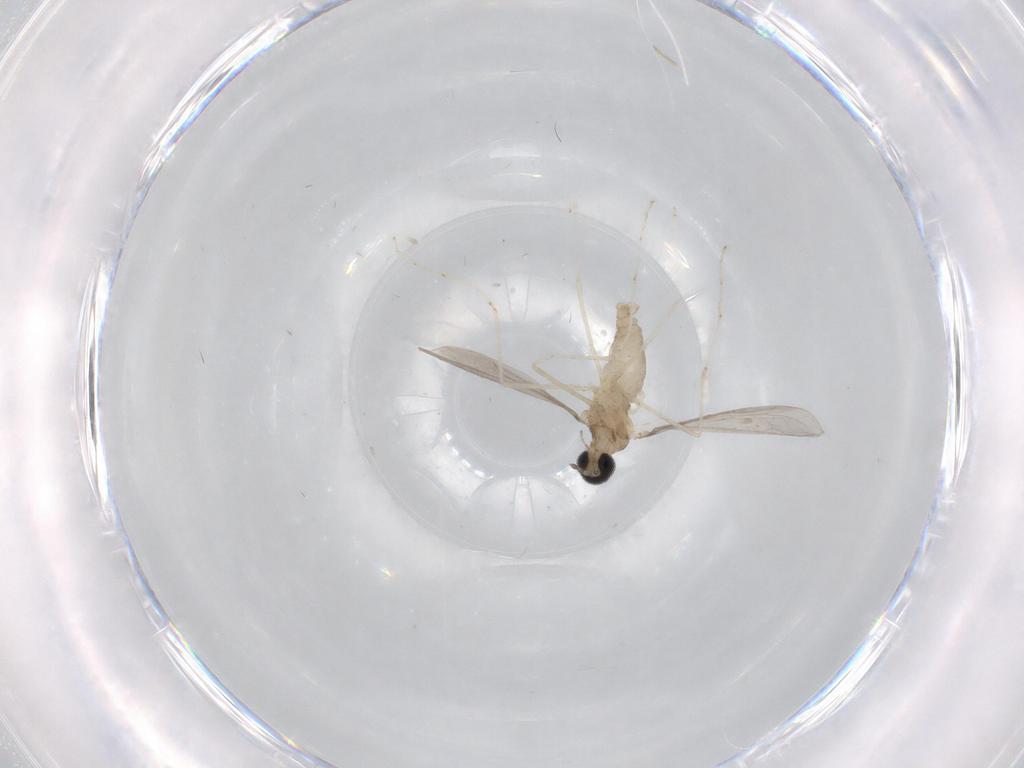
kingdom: Animalia
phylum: Arthropoda
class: Insecta
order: Diptera
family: Cecidomyiidae
